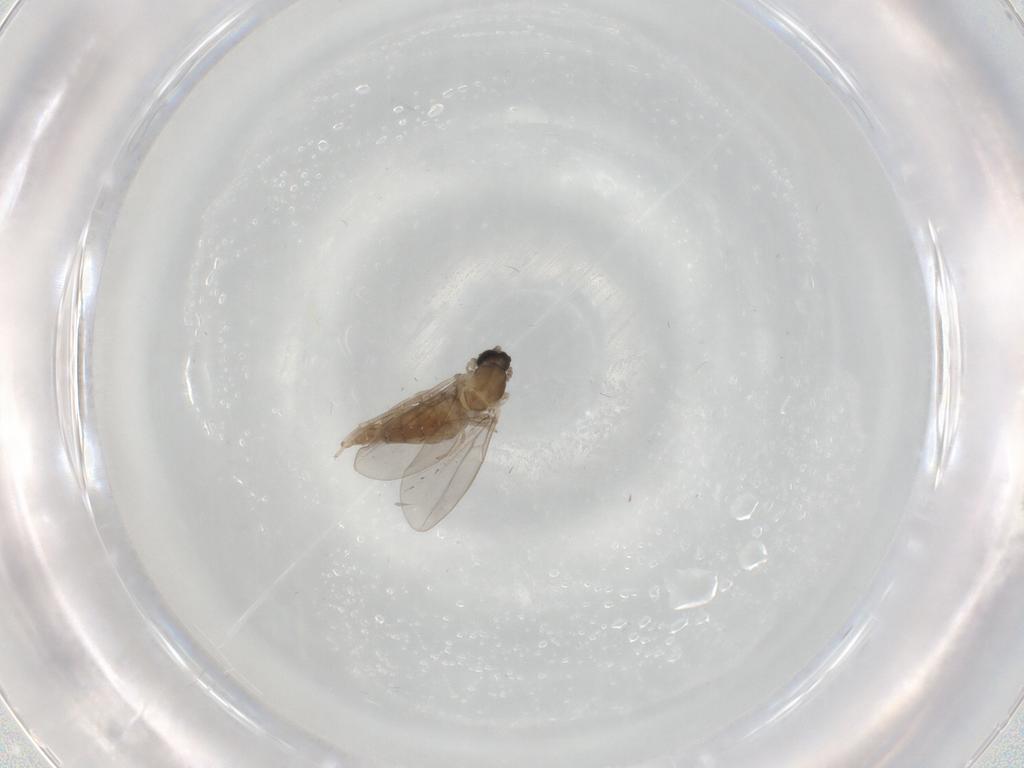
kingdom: Animalia
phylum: Arthropoda
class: Insecta
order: Diptera
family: Cecidomyiidae
